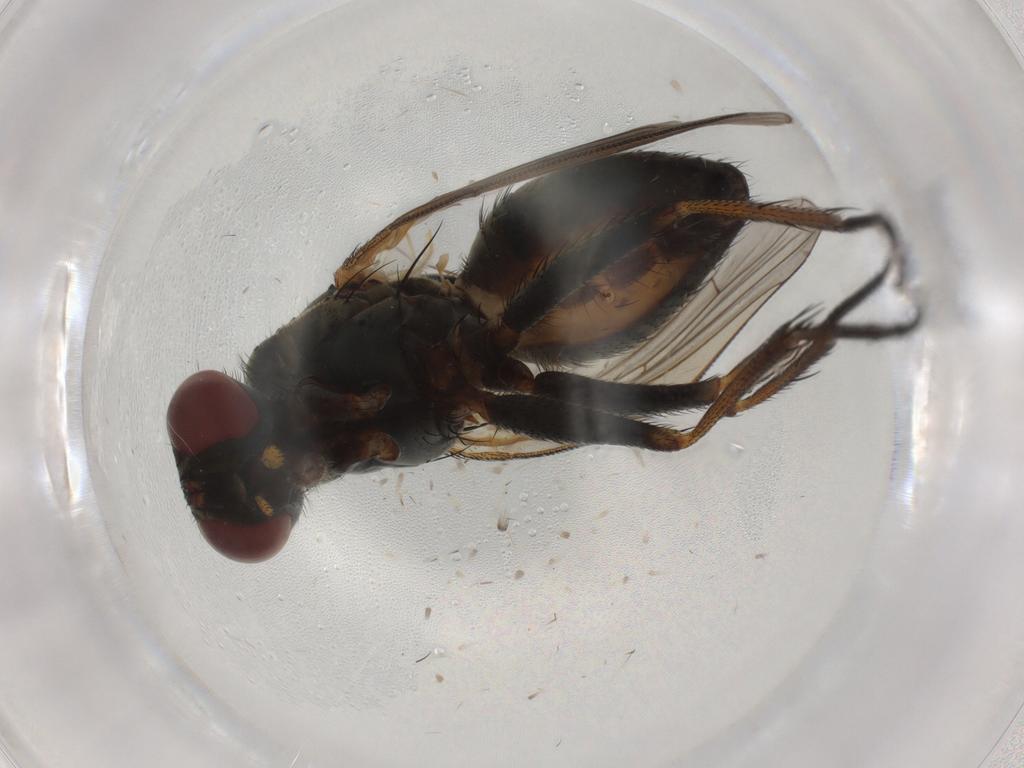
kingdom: Animalia
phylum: Arthropoda
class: Insecta
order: Diptera
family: Muscidae
